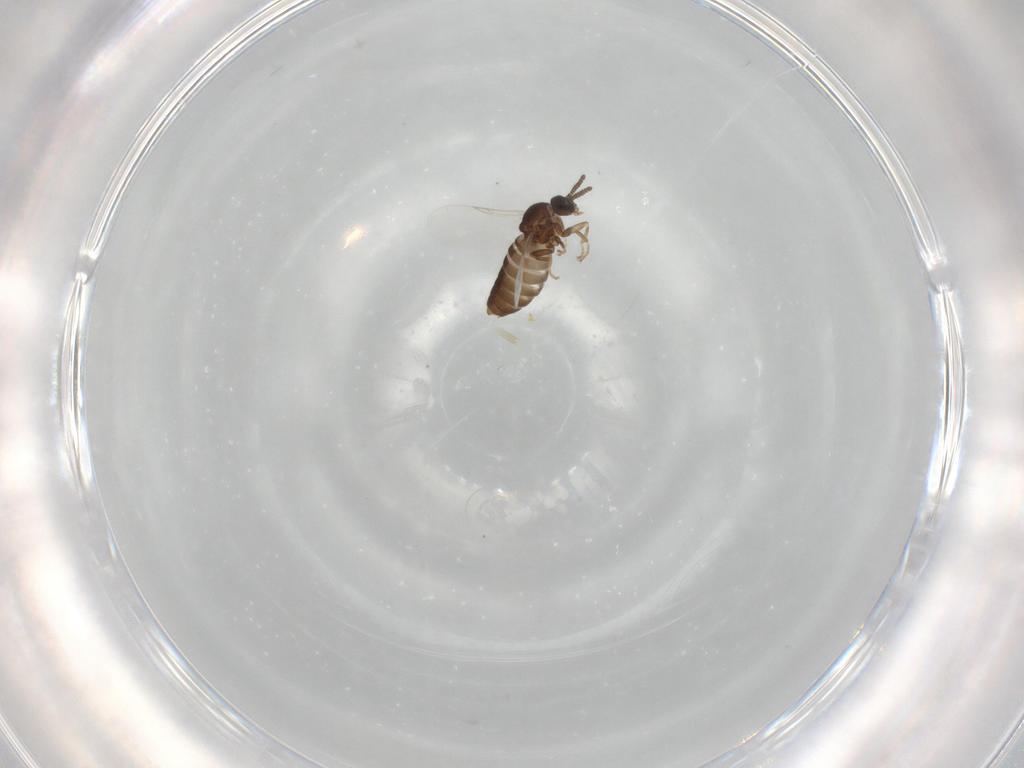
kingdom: Animalia
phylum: Arthropoda
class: Insecta
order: Diptera
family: Scatopsidae
